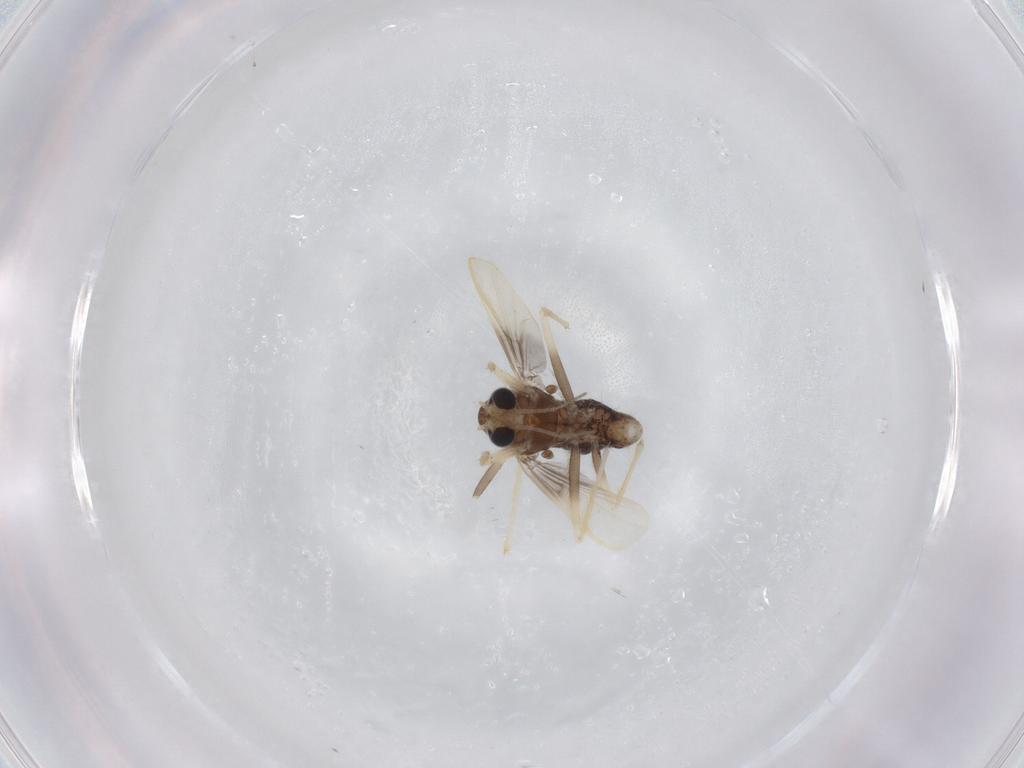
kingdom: Animalia
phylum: Arthropoda
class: Insecta
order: Diptera
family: Chironomidae
